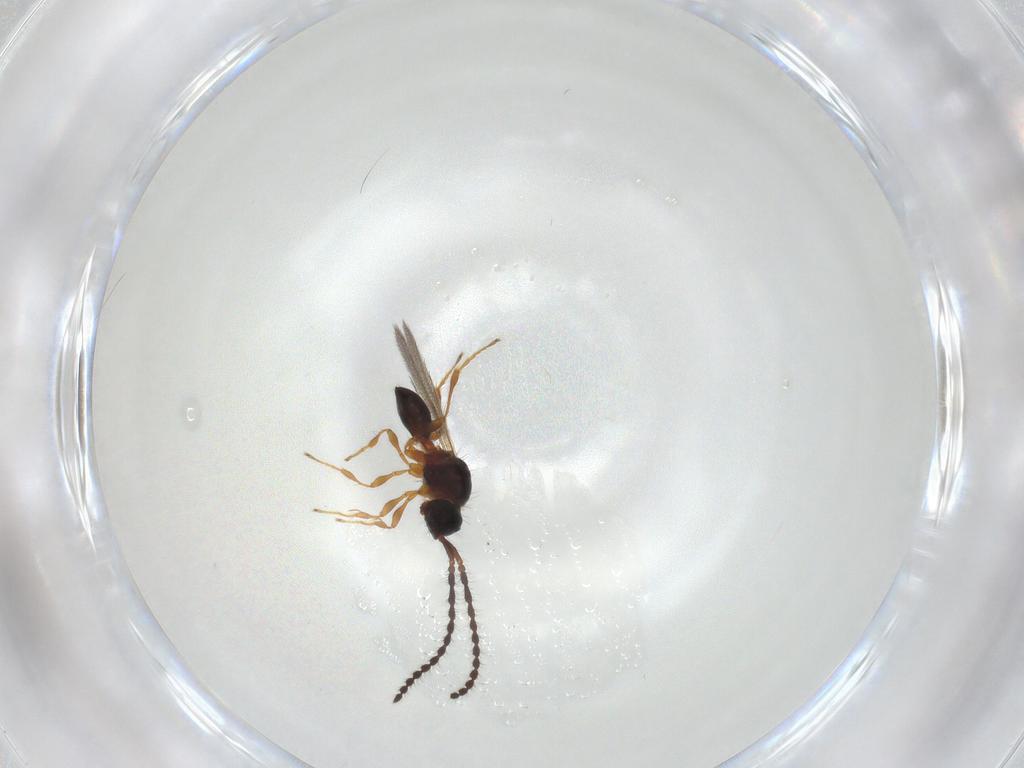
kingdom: Animalia
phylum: Arthropoda
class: Insecta
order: Hymenoptera
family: Diapriidae
